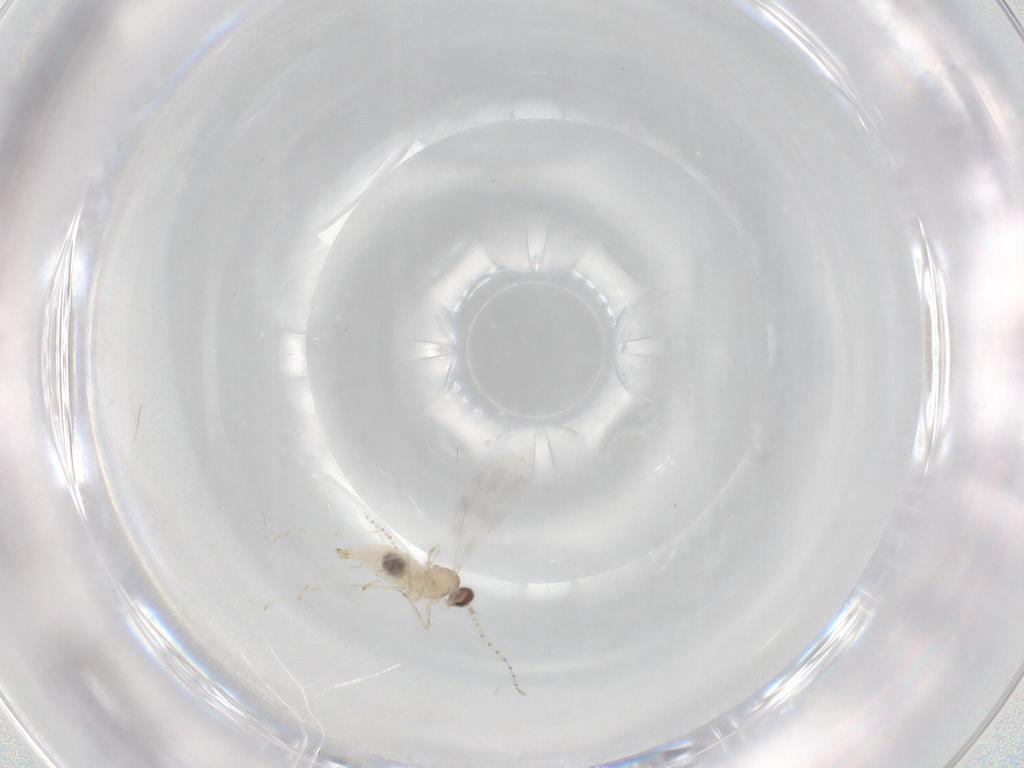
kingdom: Animalia
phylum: Arthropoda
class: Insecta
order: Diptera
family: Cecidomyiidae
